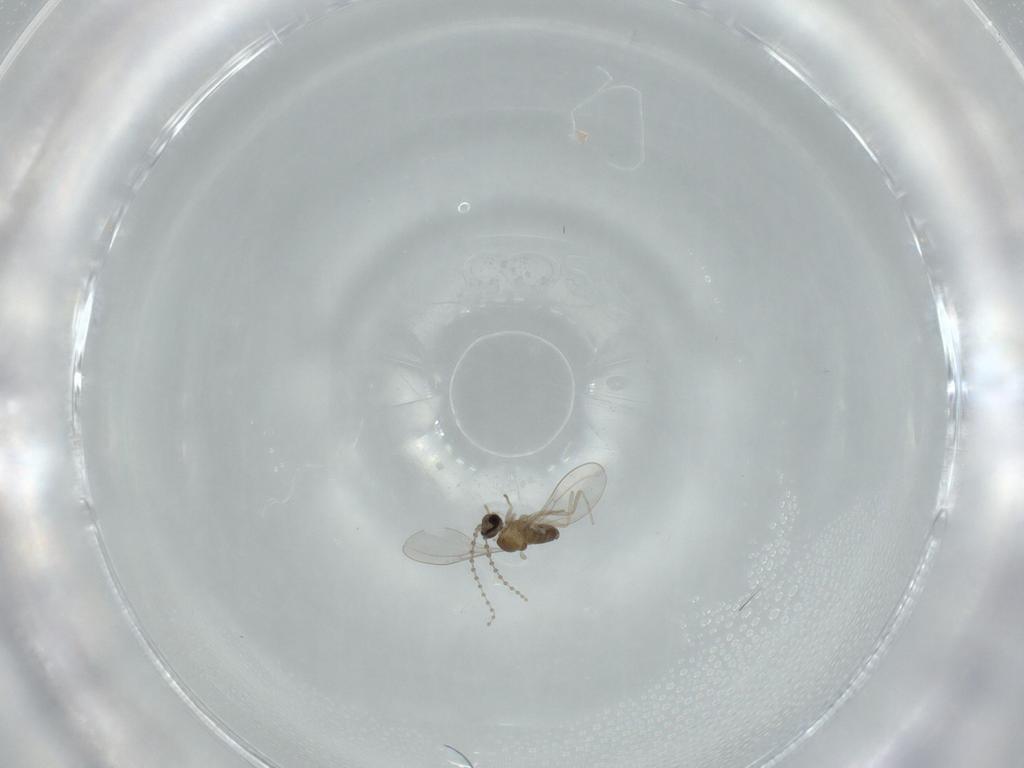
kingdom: Animalia
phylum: Arthropoda
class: Insecta
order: Diptera
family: Cecidomyiidae
